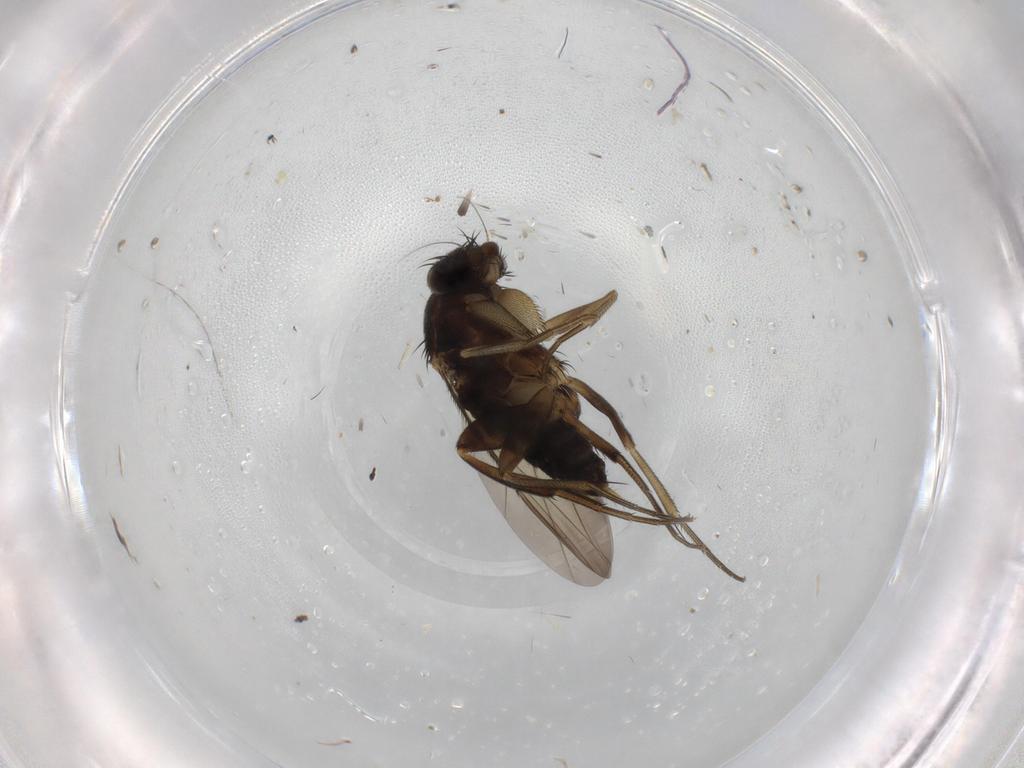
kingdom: Animalia
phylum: Arthropoda
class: Insecta
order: Diptera
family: Phoridae
